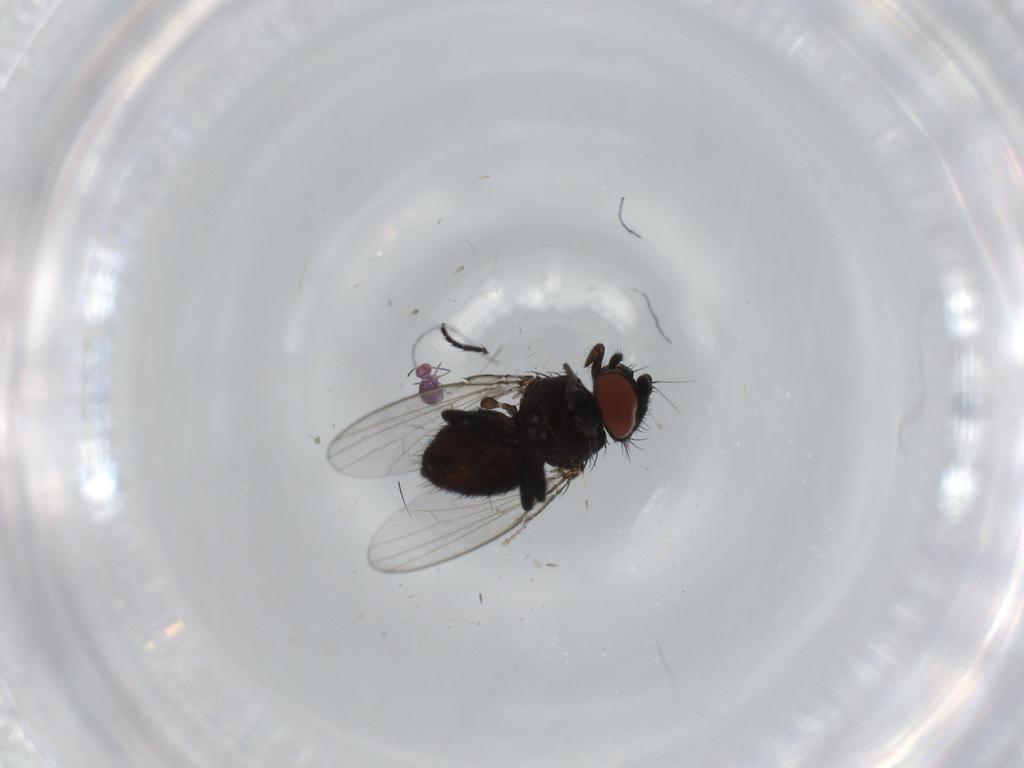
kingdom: Animalia
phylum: Arthropoda
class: Insecta
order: Diptera
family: Milichiidae
